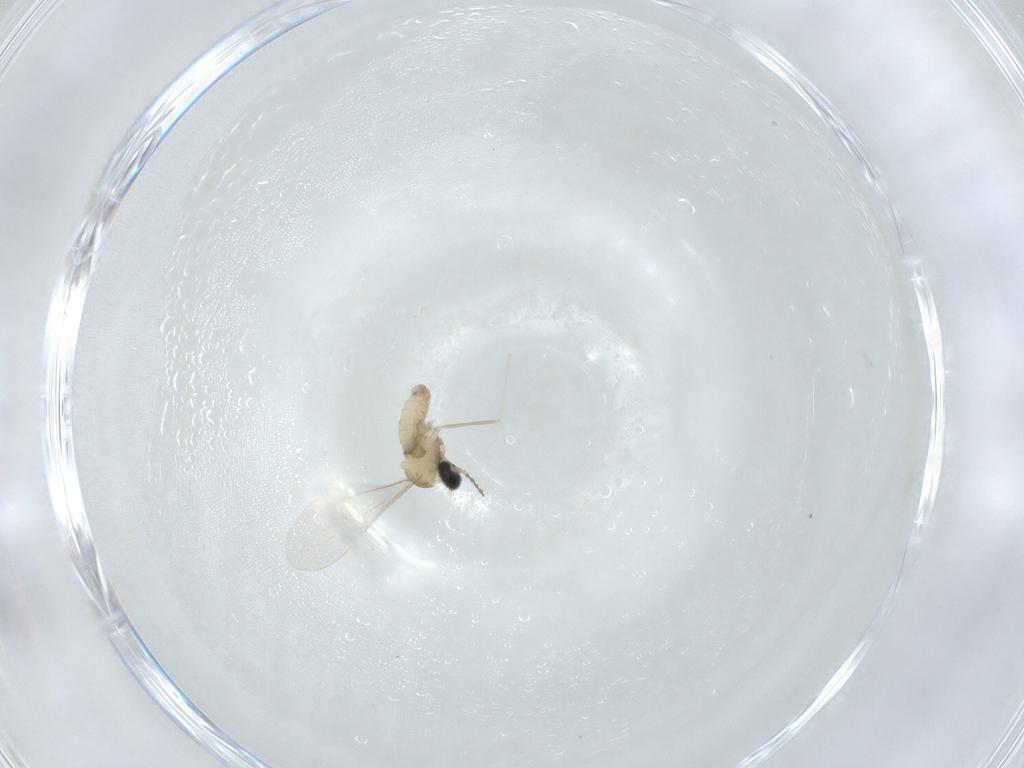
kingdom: Animalia
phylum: Arthropoda
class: Insecta
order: Diptera
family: Cecidomyiidae
